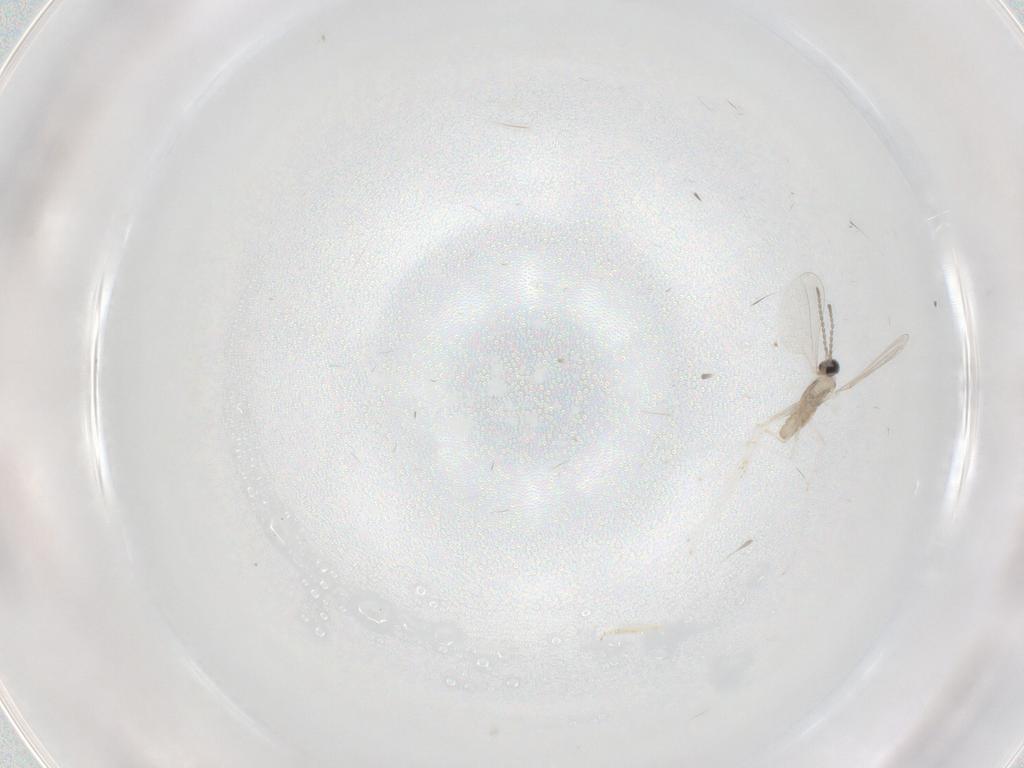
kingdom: Animalia
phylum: Arthropoda
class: Insecta
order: Diptera
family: Cecidomyiidae
